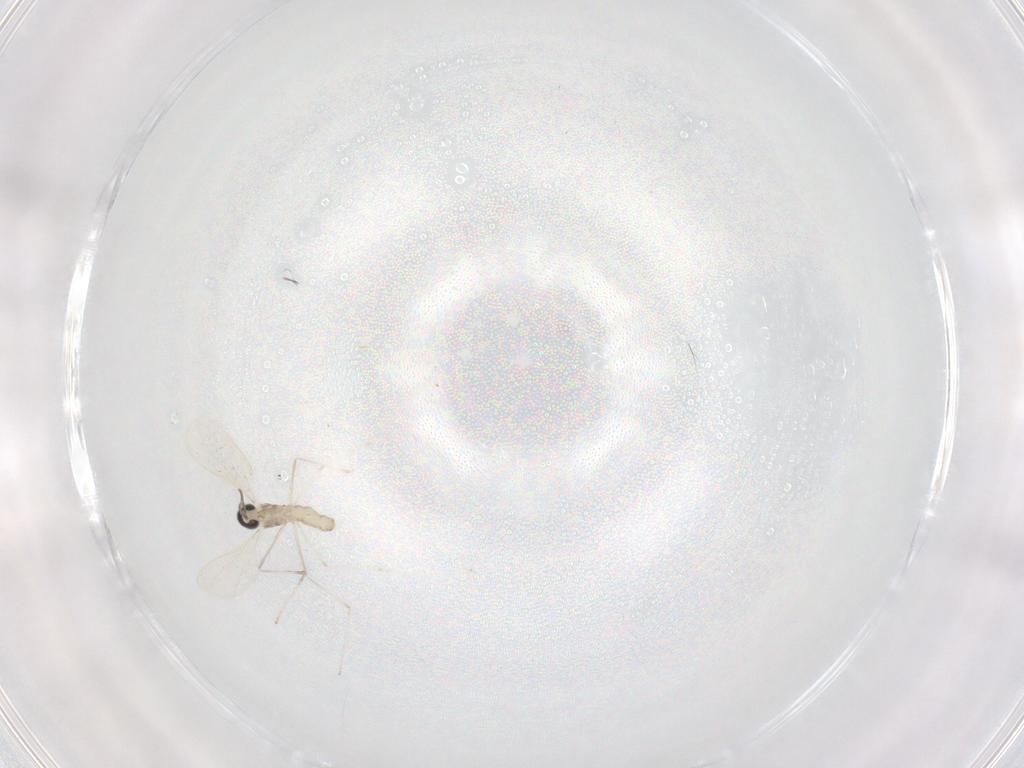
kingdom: Animalia
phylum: Arthropoda
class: Insecta
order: Diptera
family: Cecidomyiidae
